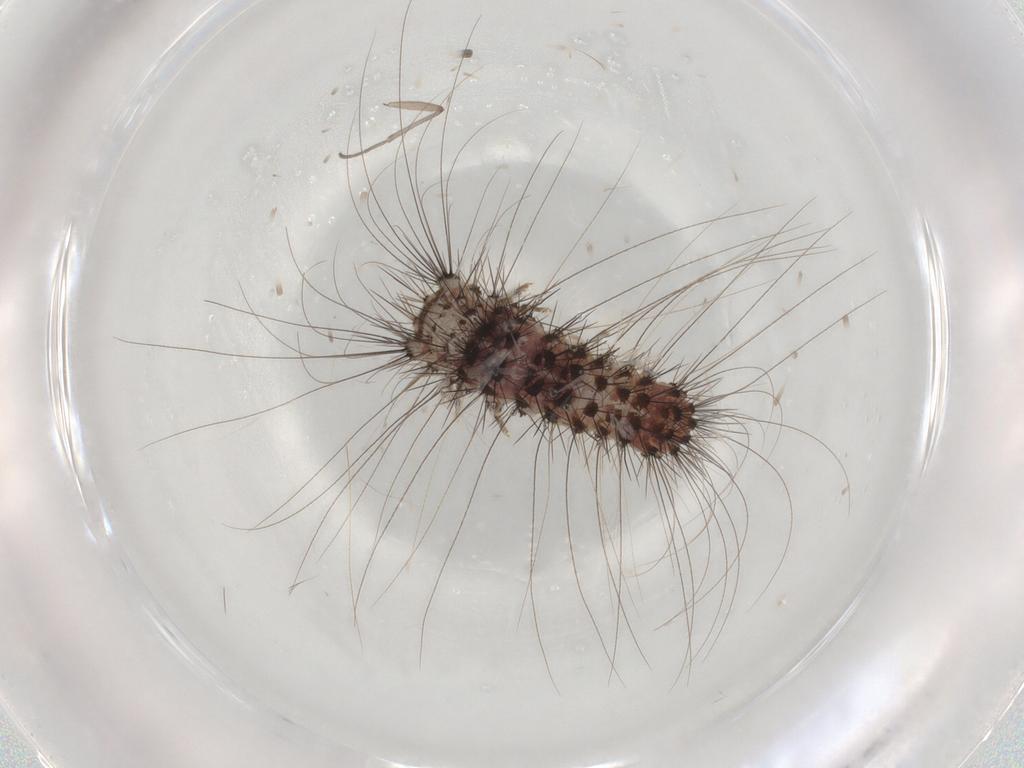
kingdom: Animalia
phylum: Arthropoda
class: Insecta
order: Lepidoptera
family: Scythrididae
